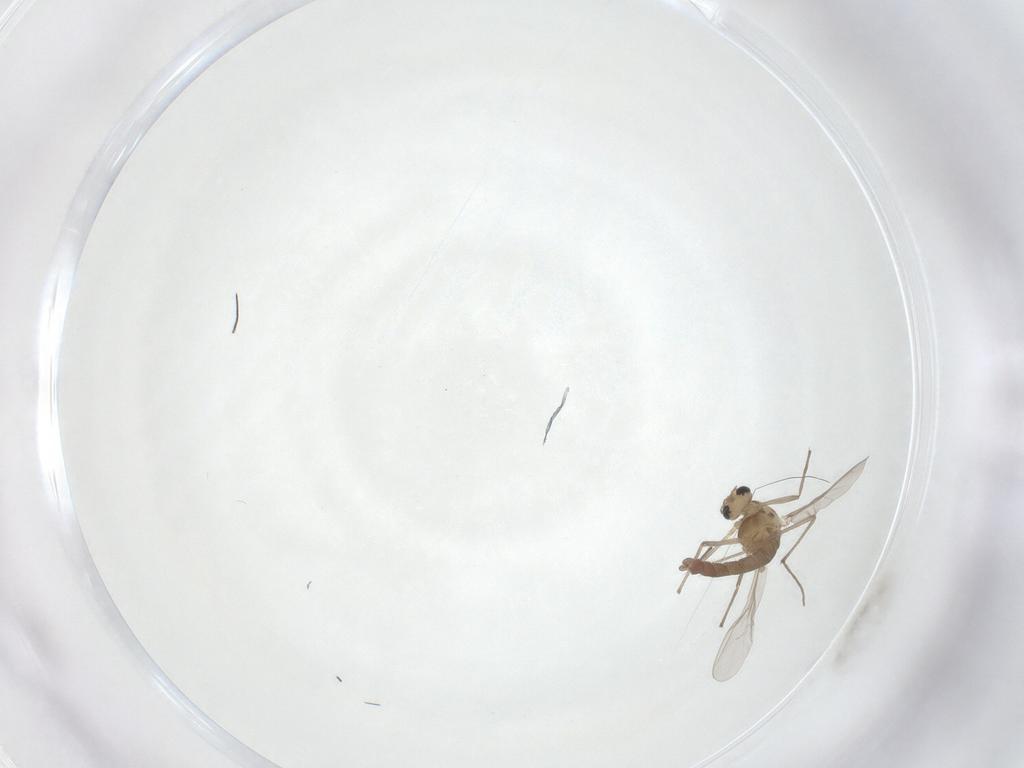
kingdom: Animalia
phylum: Arthropoda
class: Insecta
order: Diptera
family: Chironomidae
